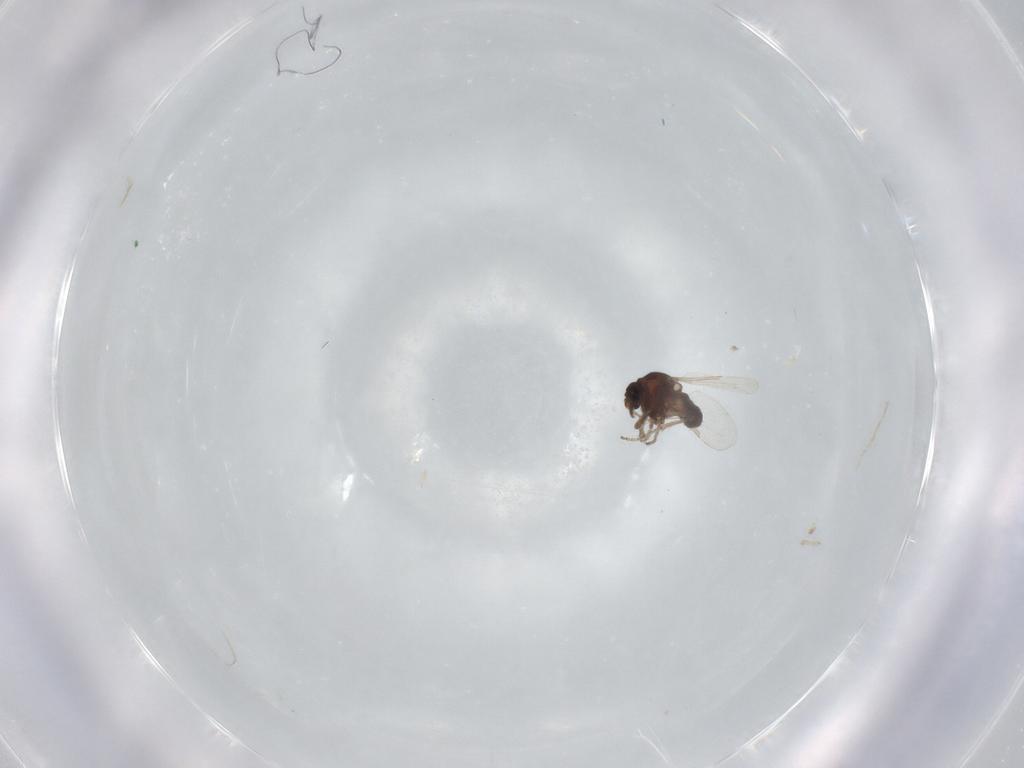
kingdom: Animalia
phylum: Arthropoda
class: Insecta
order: Diptera
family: Ceratopogonidae
